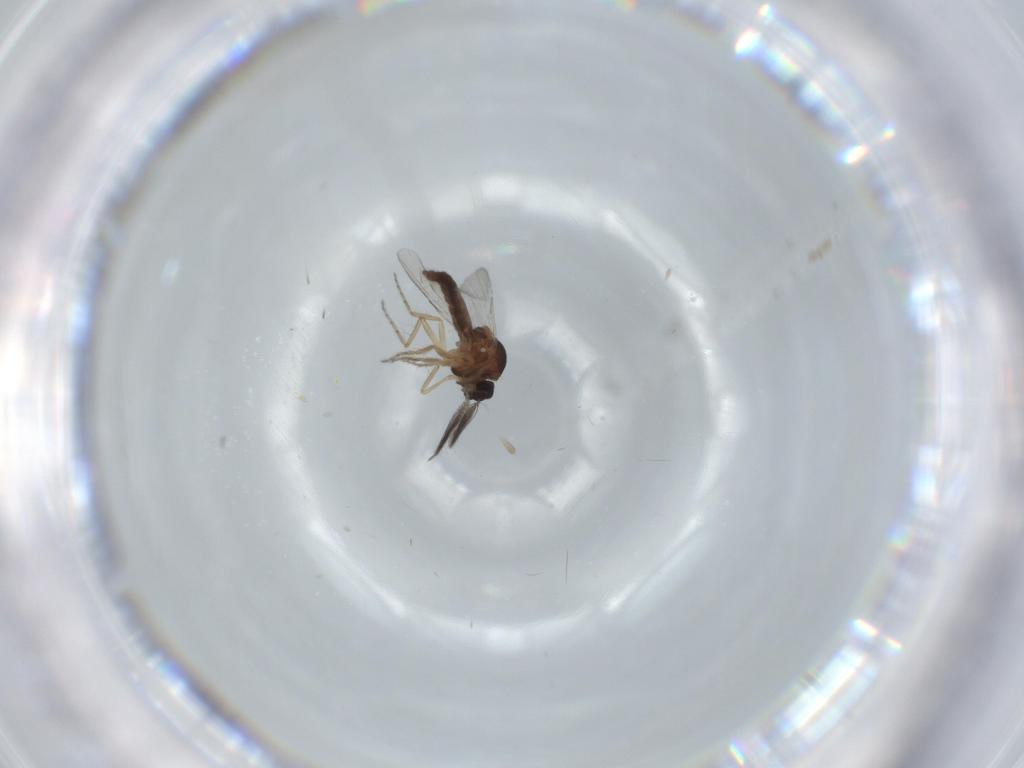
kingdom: Animalia
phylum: Arthropoda
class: Insecta
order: Diptera
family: Ceratopogonidae
